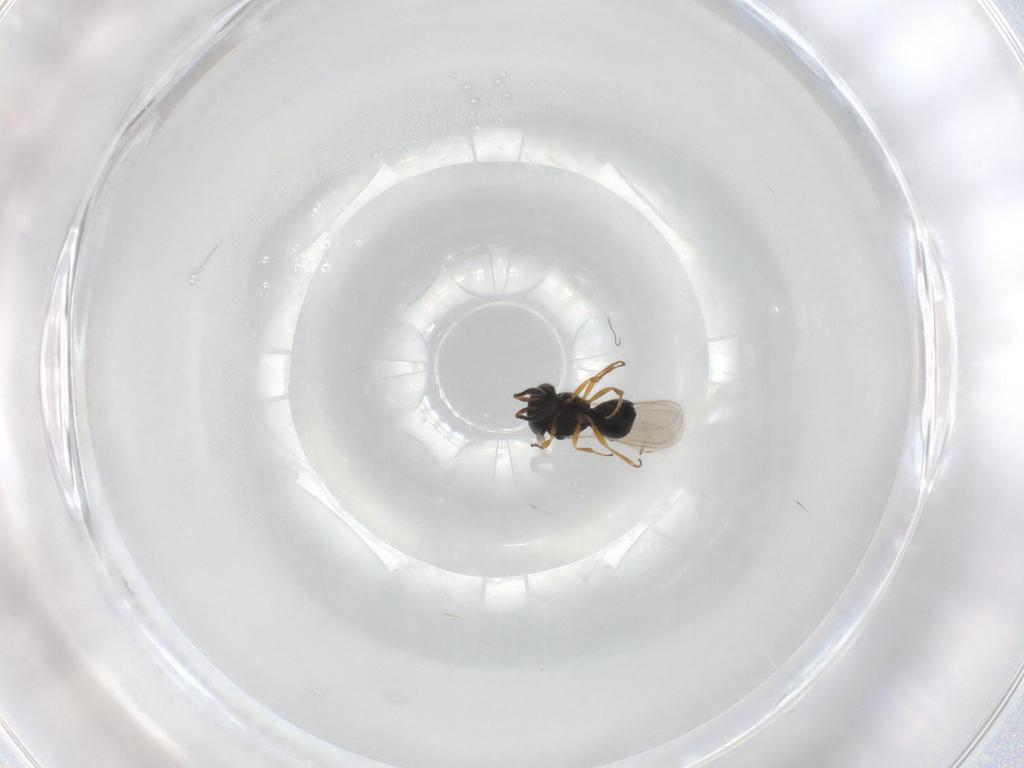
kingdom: Animalia
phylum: Arthropoda
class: Insecta
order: Hymenoptera
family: Scelionidae
